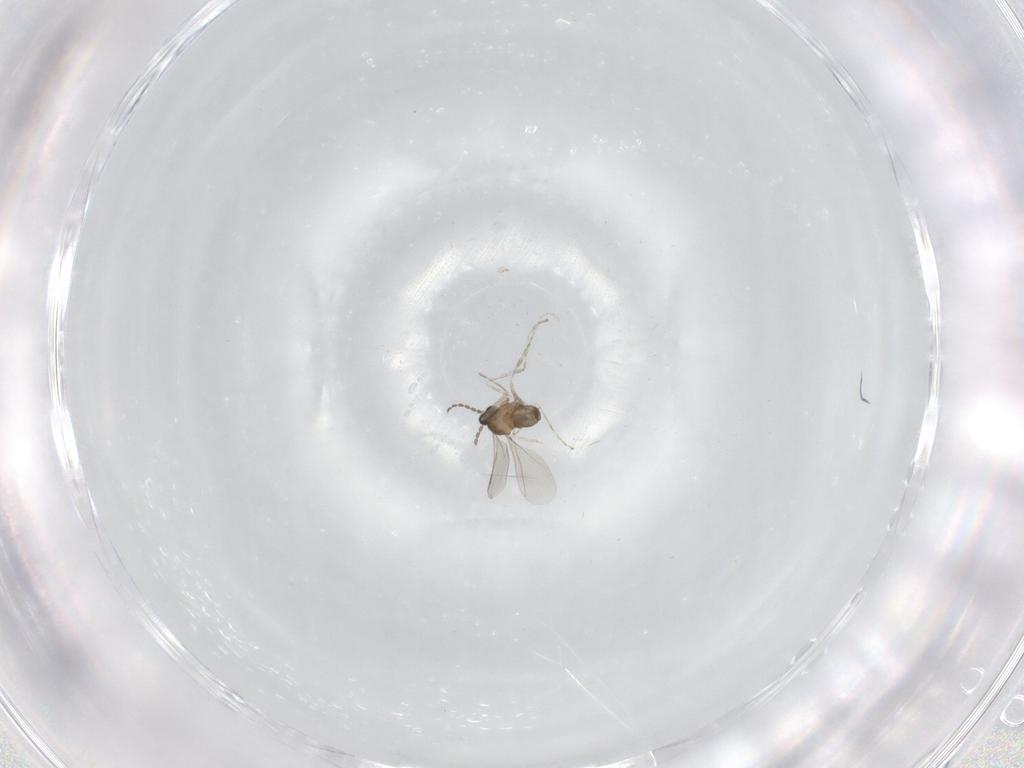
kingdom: Animalia
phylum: Arthropoda
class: Insecta
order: Diptera
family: Cecidomyiidae
